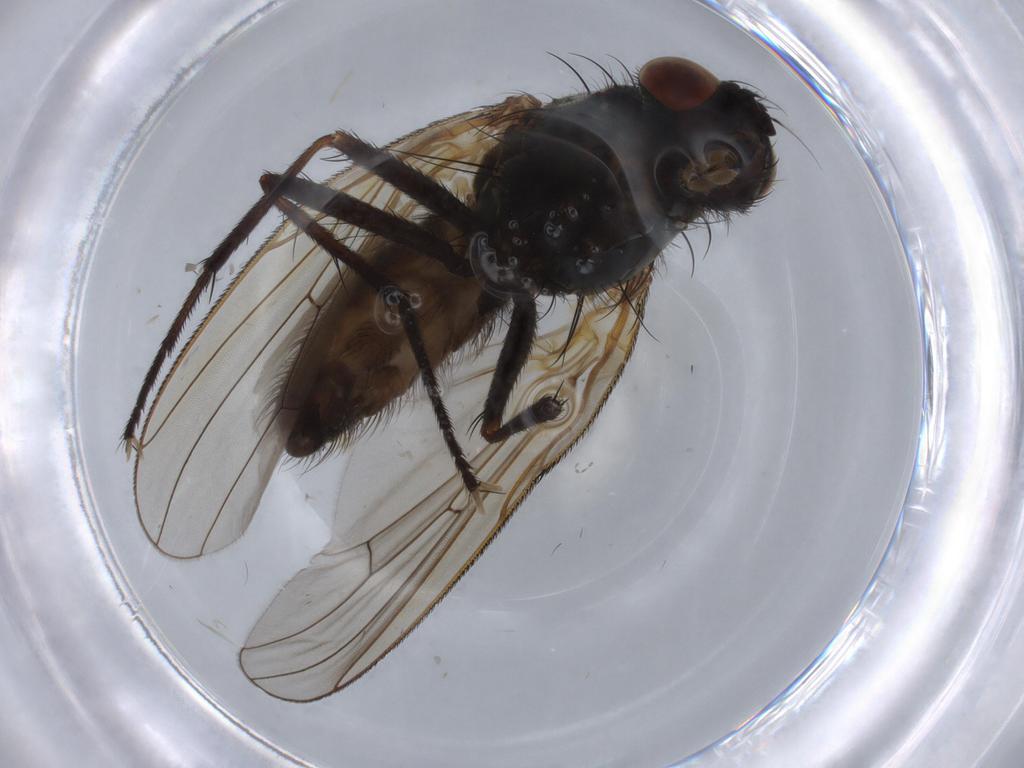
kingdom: Animalia
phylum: Arthropoda
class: Insecta
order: Diptera
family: Anthomyiidae
